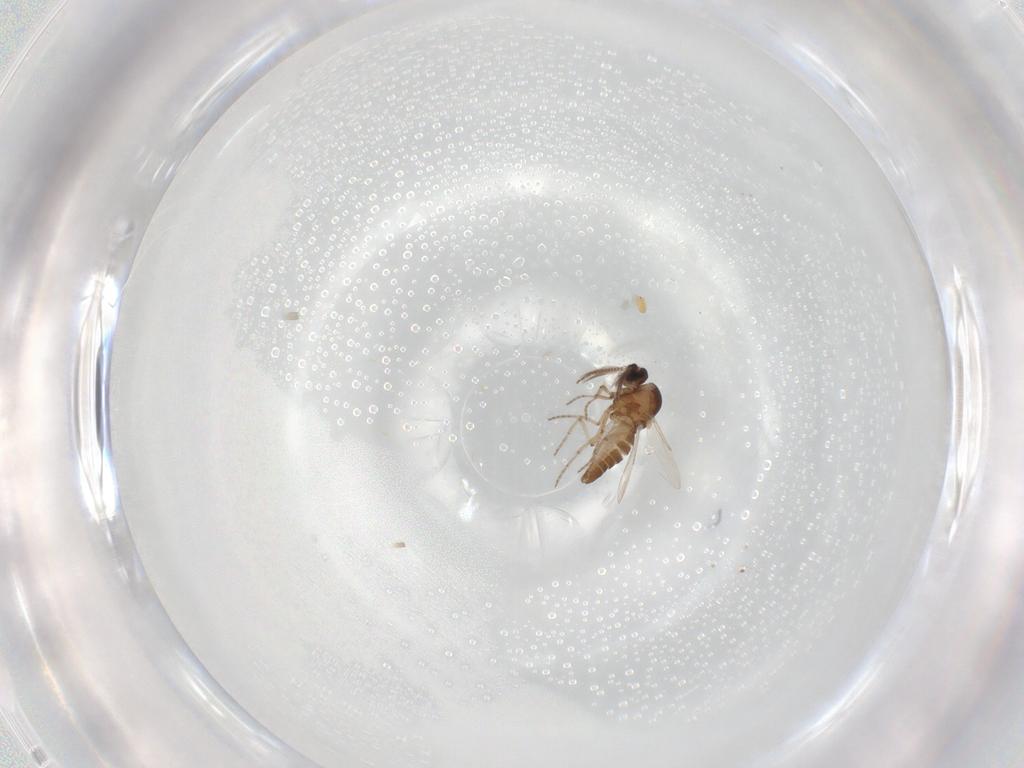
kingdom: Animalia
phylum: Arthropoda
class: Insecta
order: Diptera
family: Ceratopogonidae
